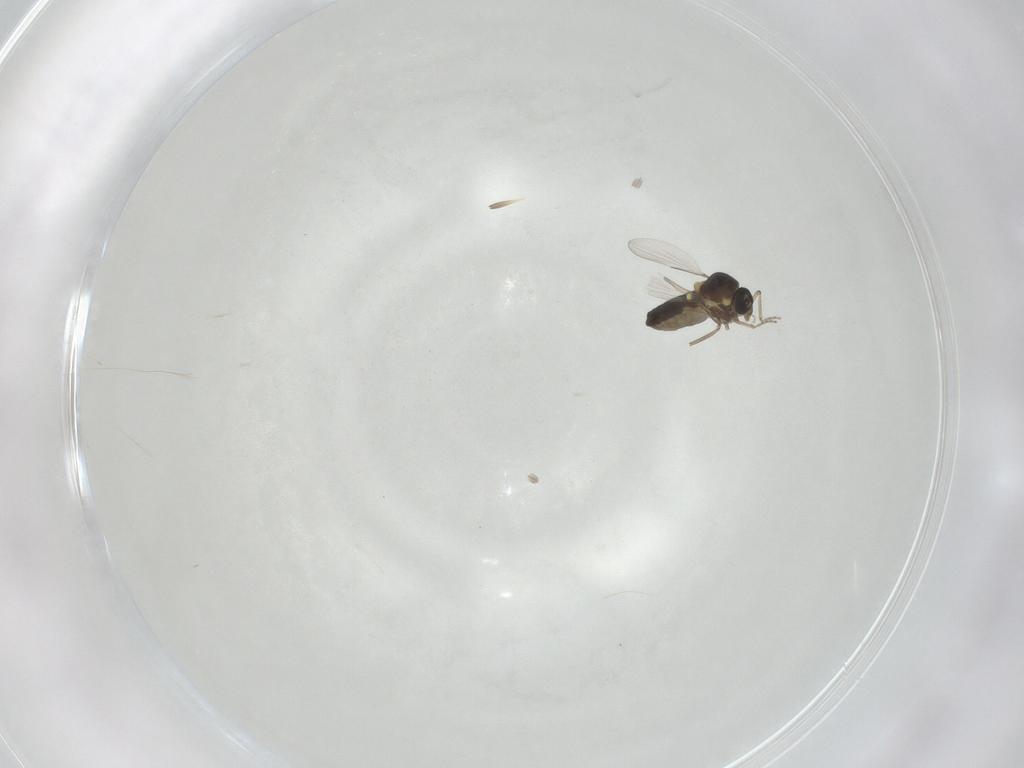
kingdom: Animalia
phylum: Arthropoda
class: Insecta
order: Diptera
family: Ceratopogonidae
